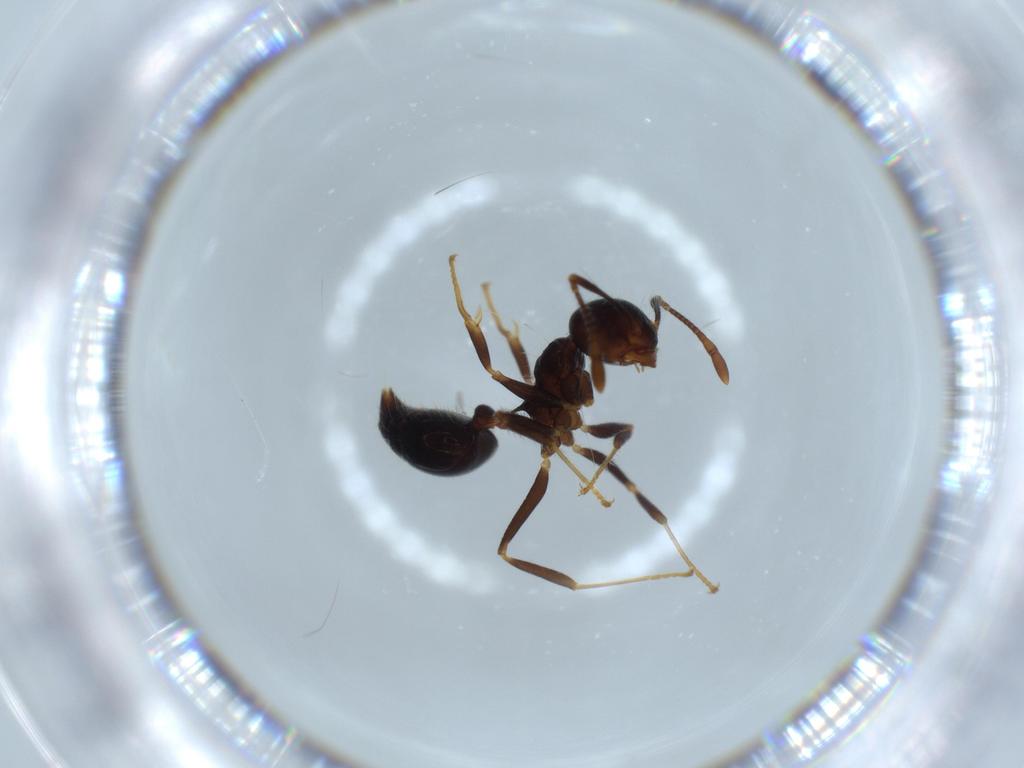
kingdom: Animalia
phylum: Arthropoda
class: Insecta
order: Hymenoptera
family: Formicidae
